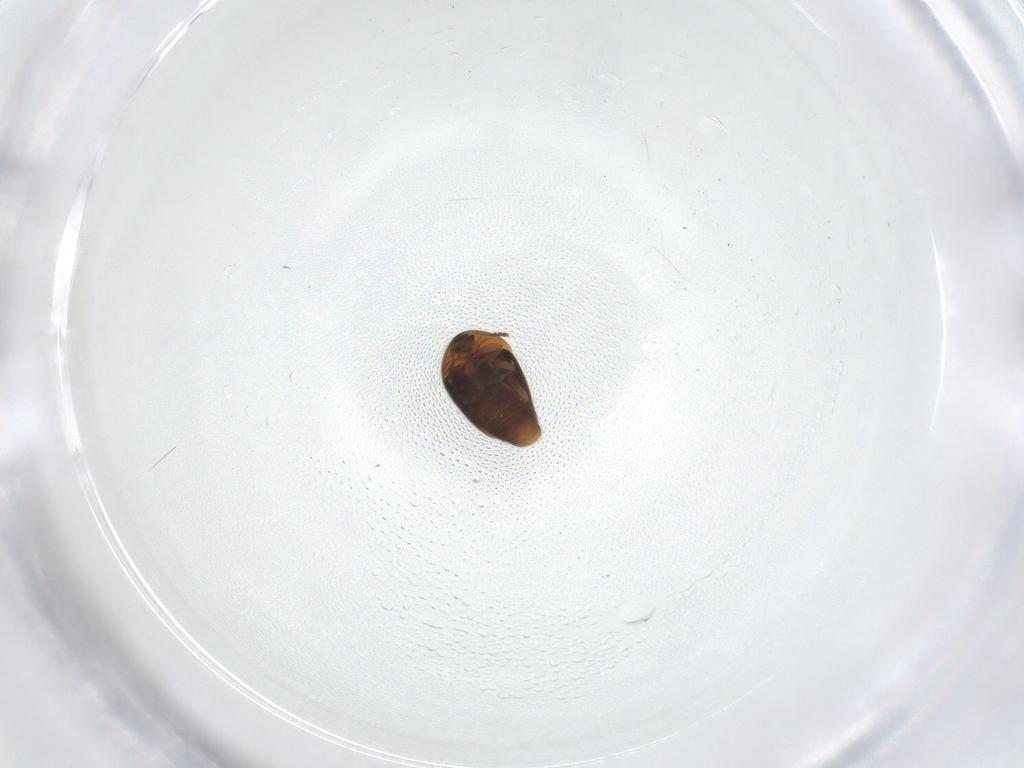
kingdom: Animalia
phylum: Arthropoda
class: Insecta
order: Coleoptera
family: Corylophidae
